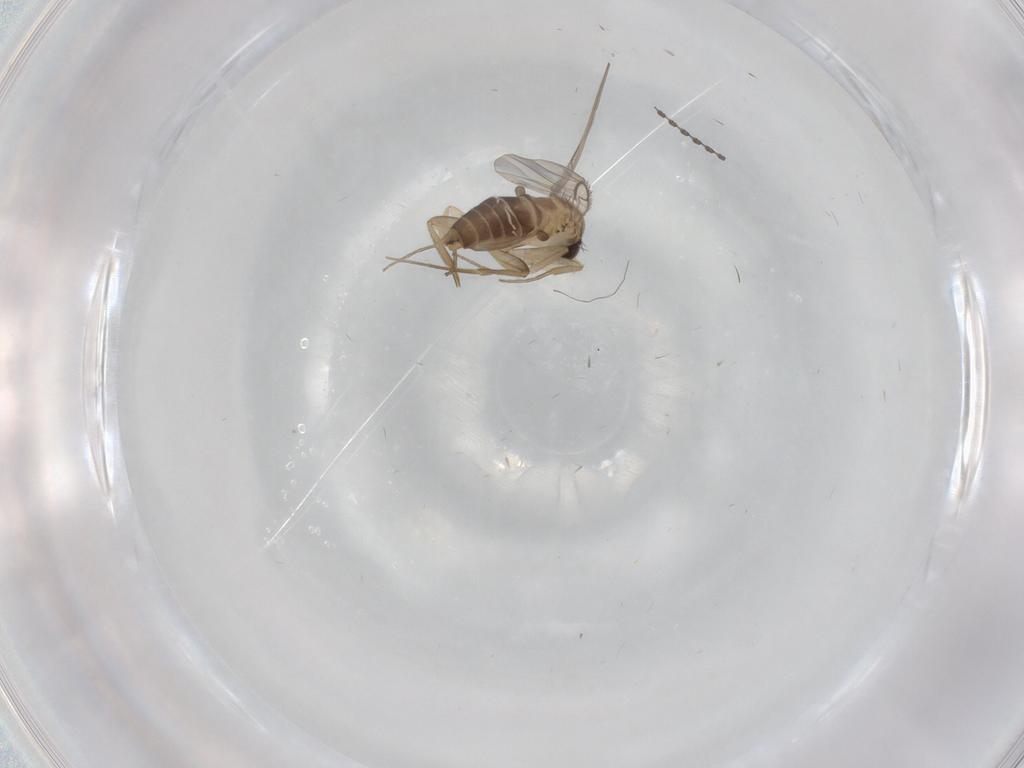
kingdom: Animalia
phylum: Arthropoda
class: Insecta
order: Diptera
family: Phoridae
